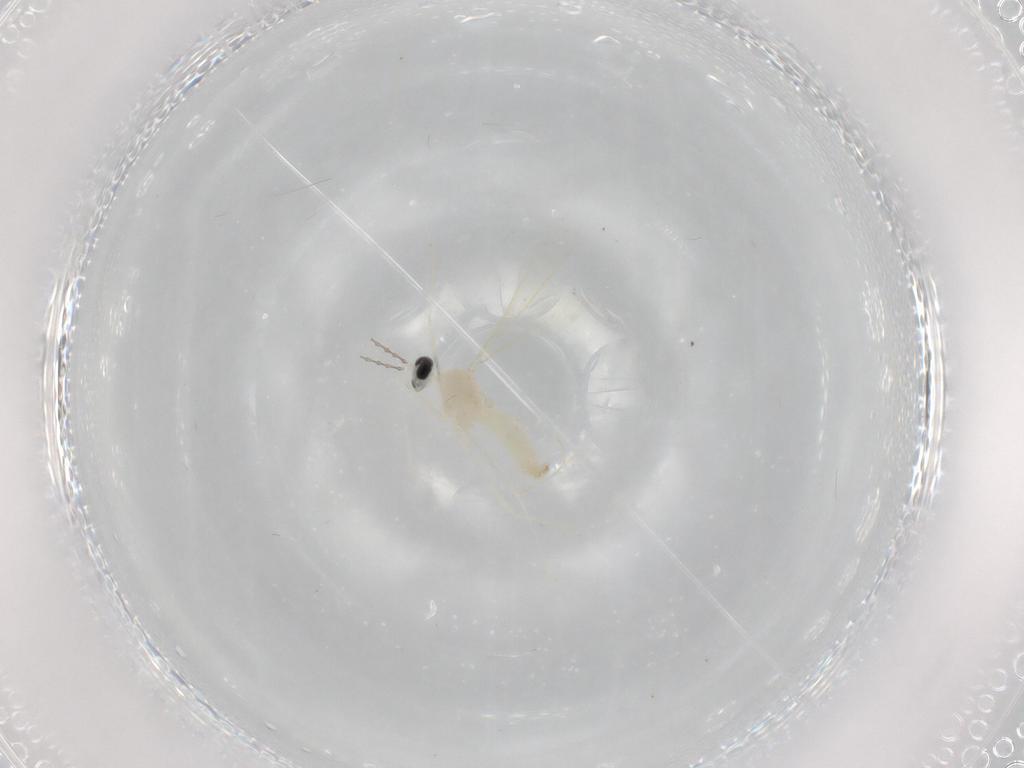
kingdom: Animalia
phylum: Arthropoda
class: Insecta
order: Diptera
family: Cecidomyiidae
